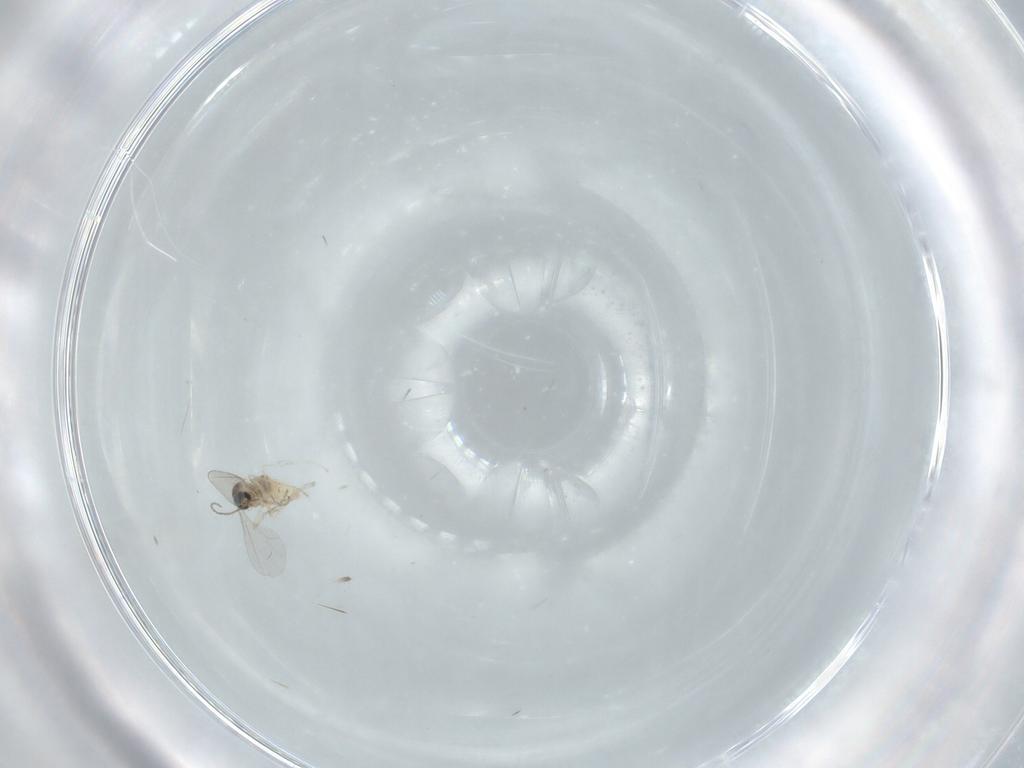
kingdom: Animalia
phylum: Arthropoda
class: Insecta
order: Diptera
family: Cecidomyiidae
